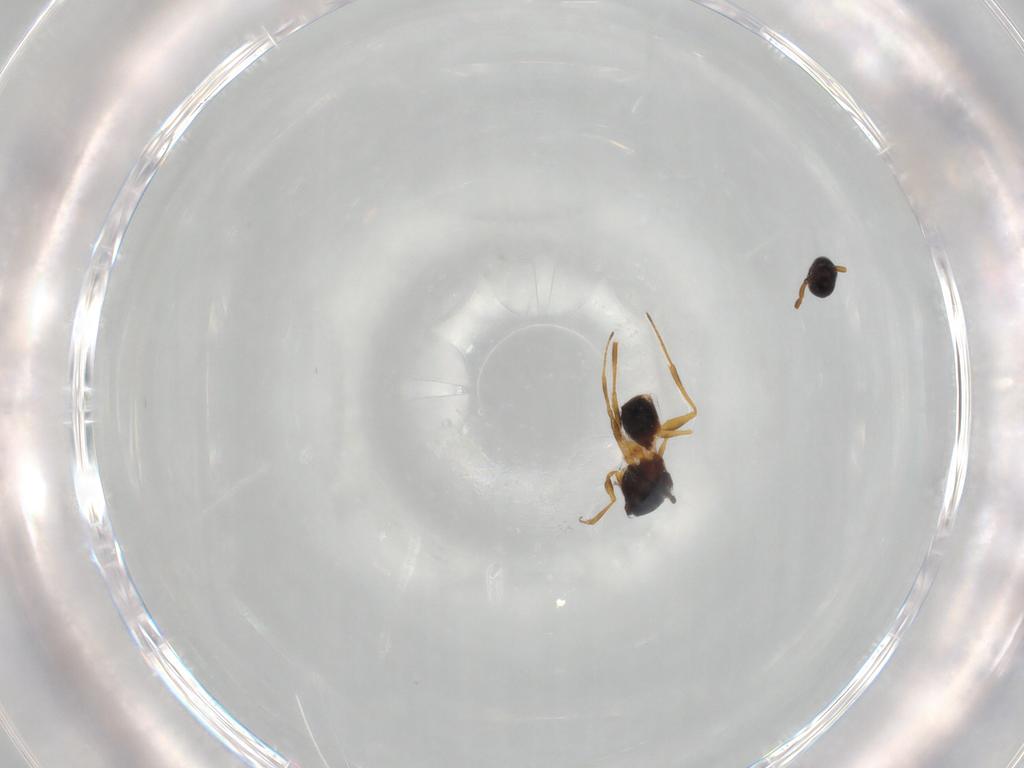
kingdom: Animalia
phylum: Arthropoda
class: Insecta
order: Hymenoptera
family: Figitidae
